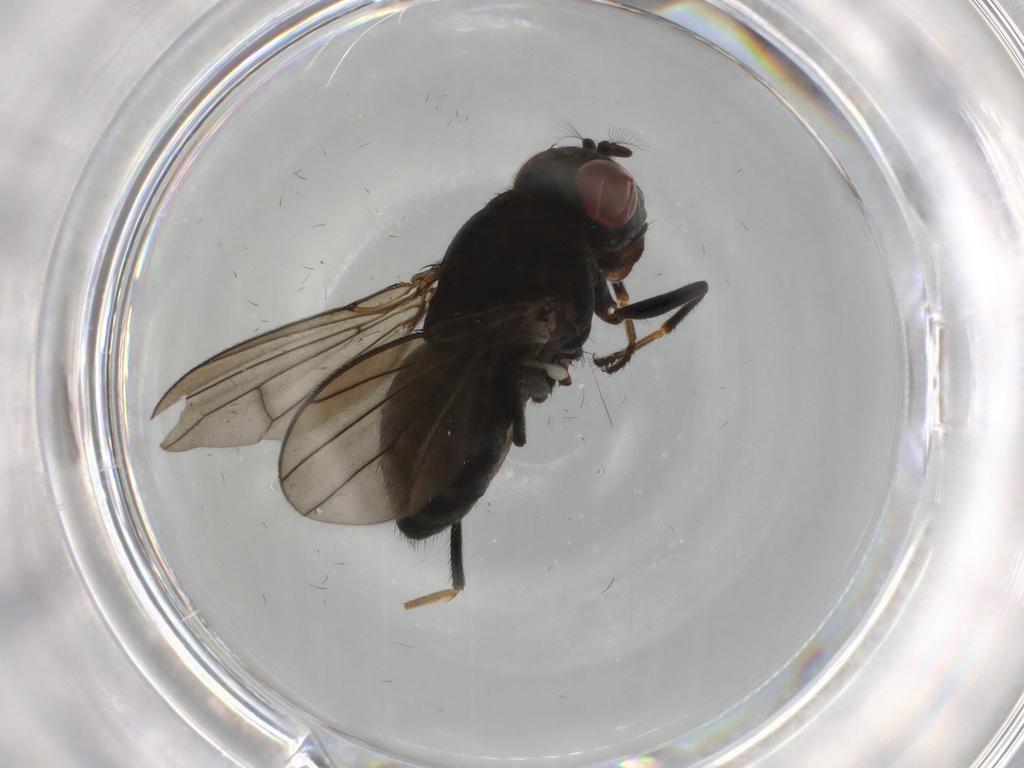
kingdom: Animalia
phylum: Arthropoda
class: Insecta
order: Diptera
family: Ephydridae
